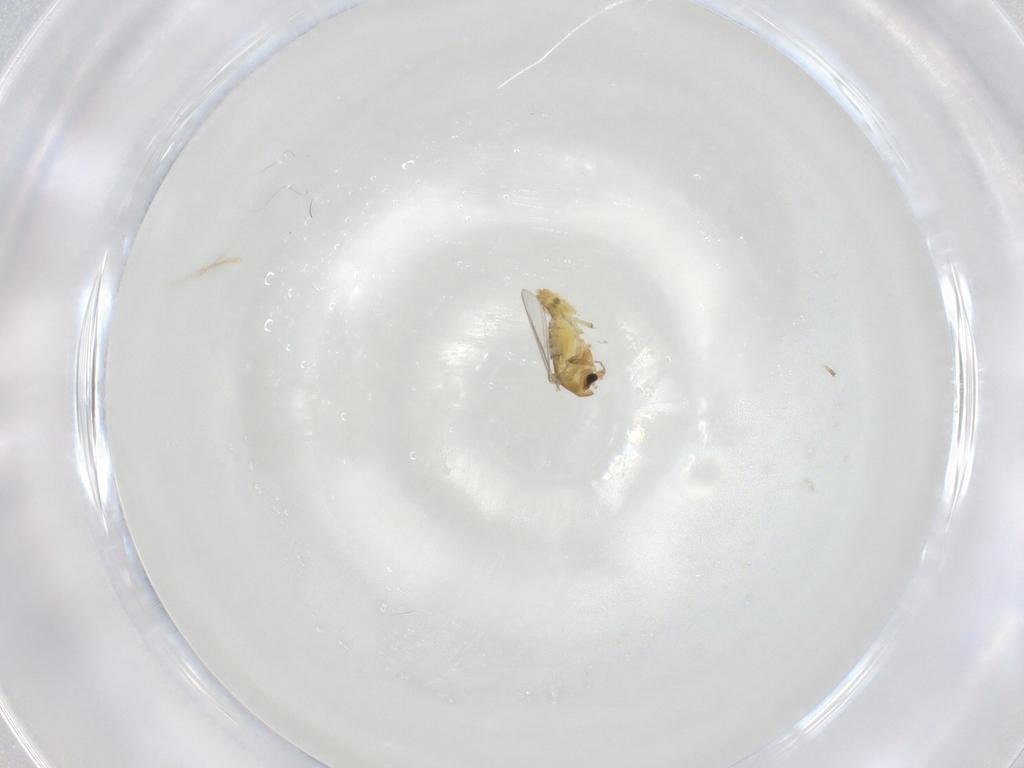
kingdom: Animalia
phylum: Arthropoda
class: Insecta
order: Diptera
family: Chironomidae
